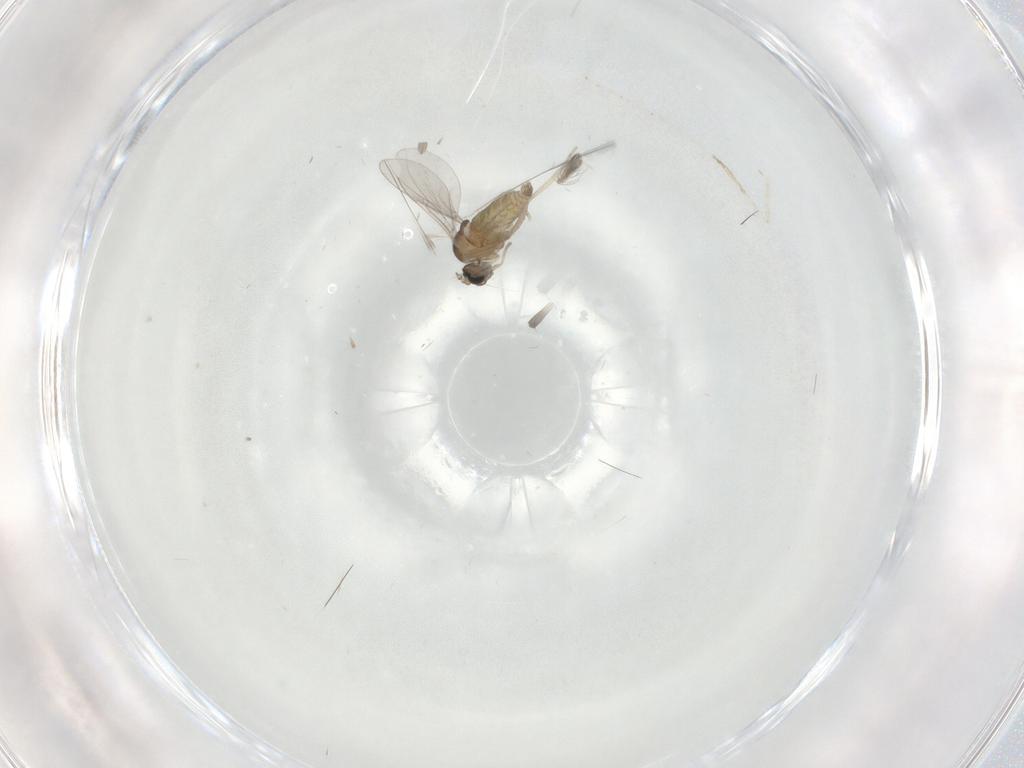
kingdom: Animalia
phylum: Arthropoda
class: Insecta
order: Diptera
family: Cecidomyiidae
